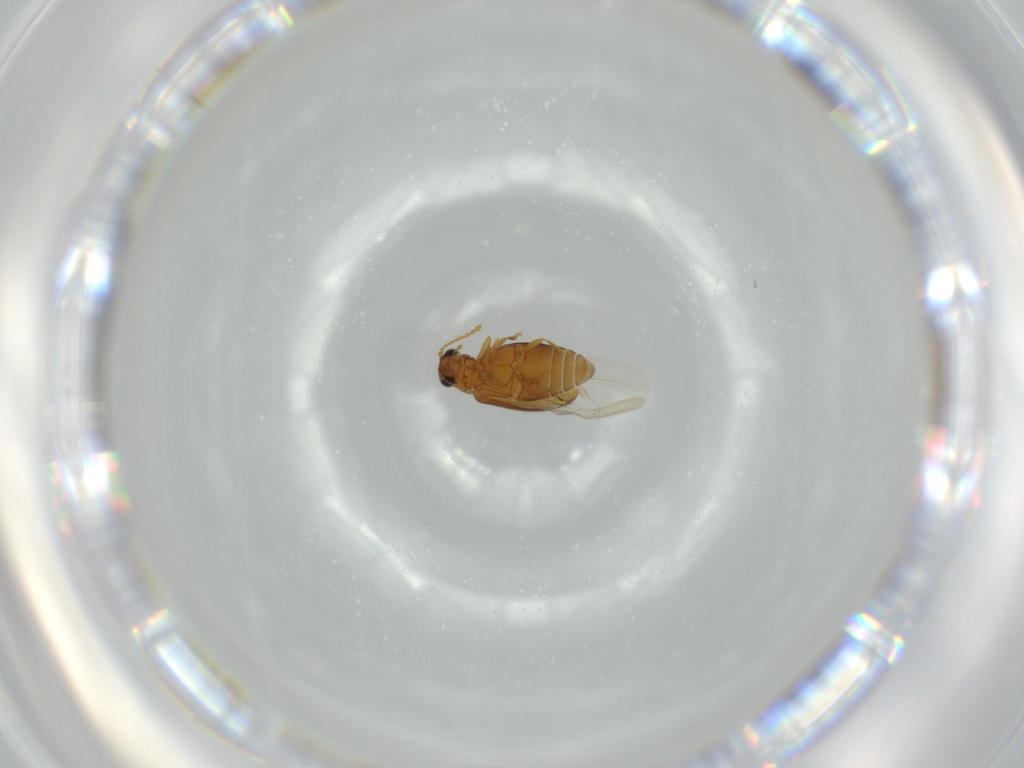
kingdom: Animalia
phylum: Arthropoda
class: Insecta
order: Coleoptera
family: Aderidae
